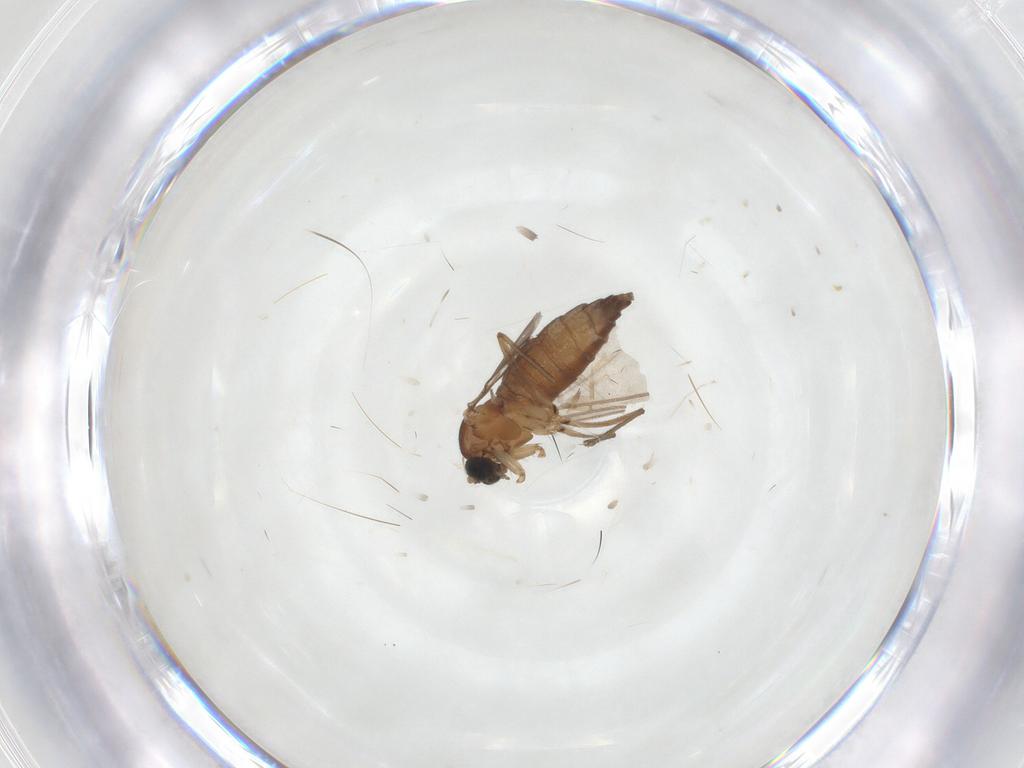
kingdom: Animalia
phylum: Arthropoda
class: Insecta
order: Diptera
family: Sciaridae
